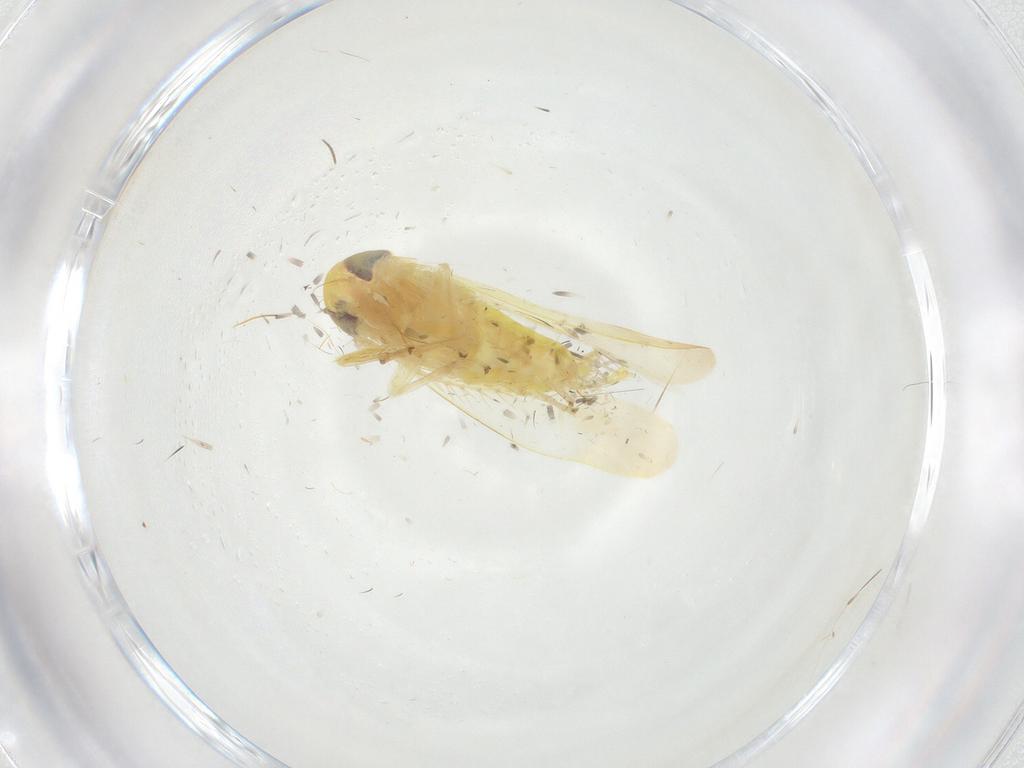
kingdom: Animalia
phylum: Arthropoda
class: Insecta
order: Hemiptera
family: Cicadellidae
